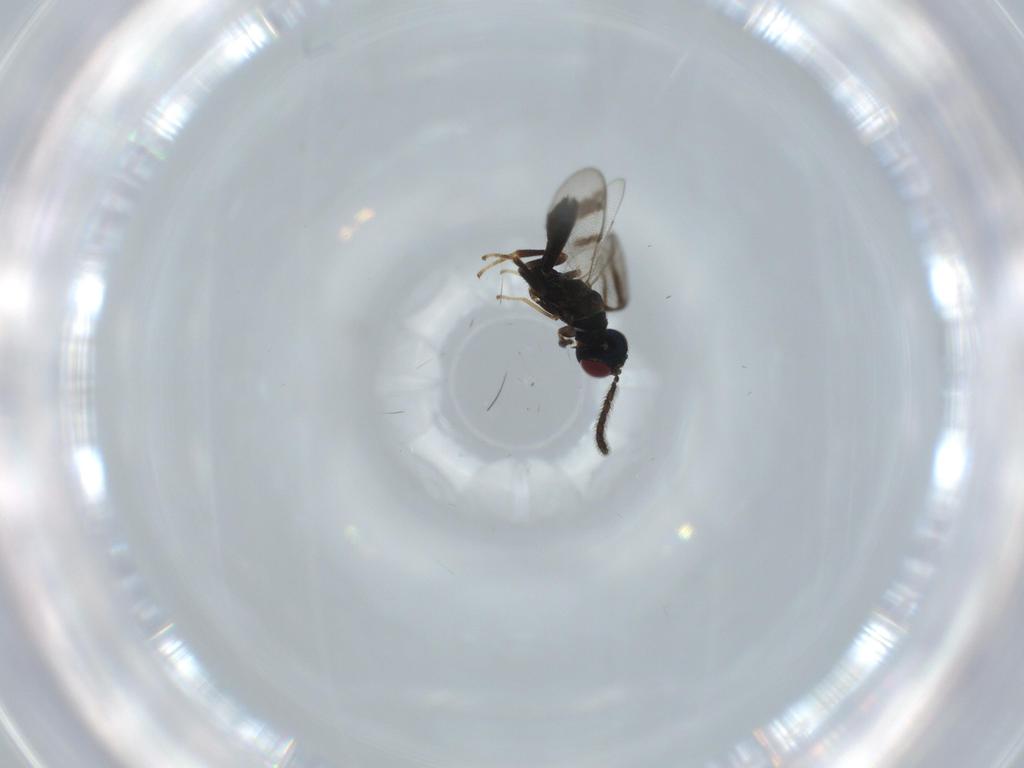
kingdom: Animalia
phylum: Arthropoda
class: Insecta
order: Hymenoptera
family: Pteromalidae
